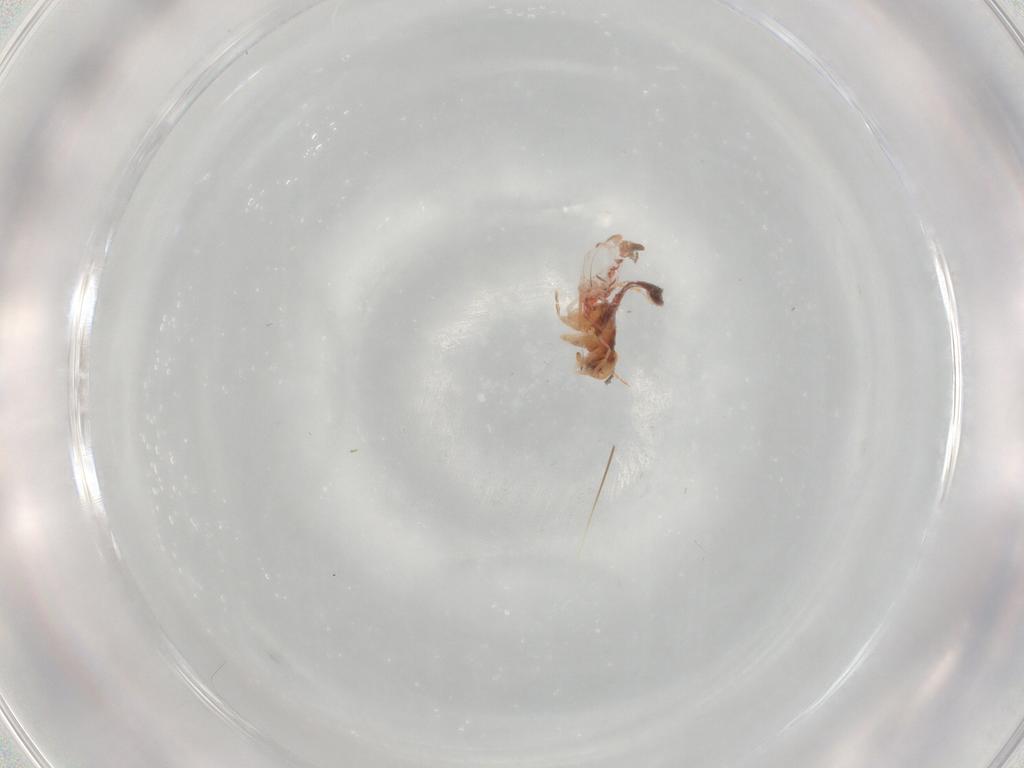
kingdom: Animalia
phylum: Arthropoda
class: Insecta
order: Hemiptera
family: Aleyrodidae
